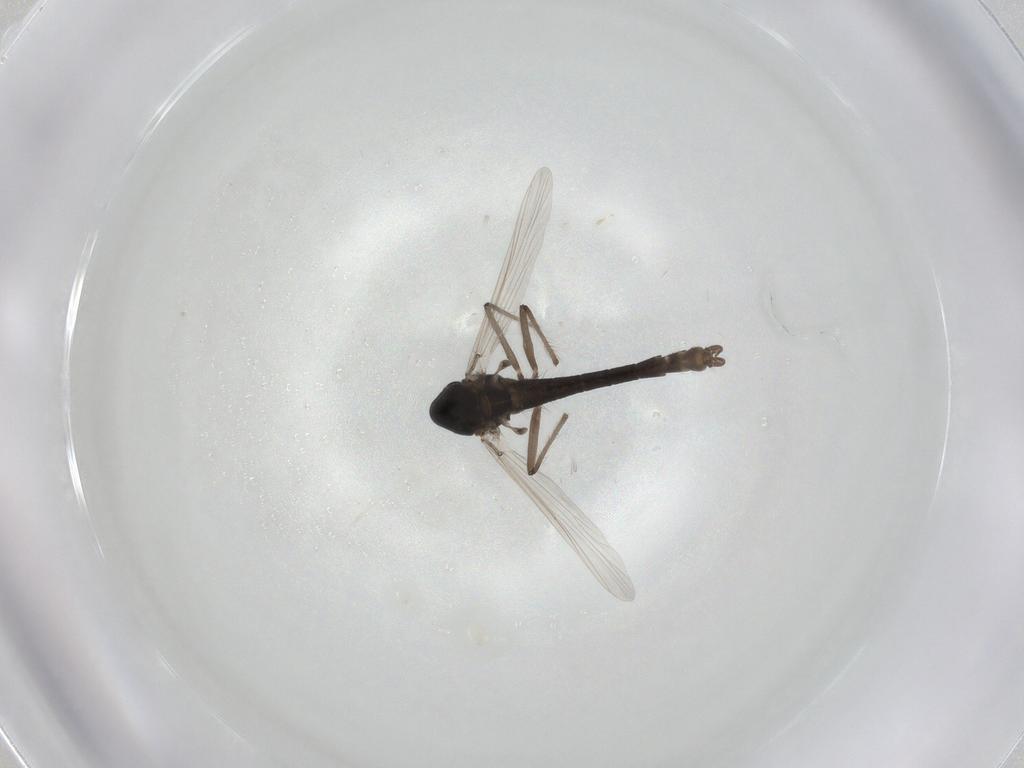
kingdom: Animalia
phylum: Arthropoda
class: Insecta
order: Diptera
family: Chironomidae
